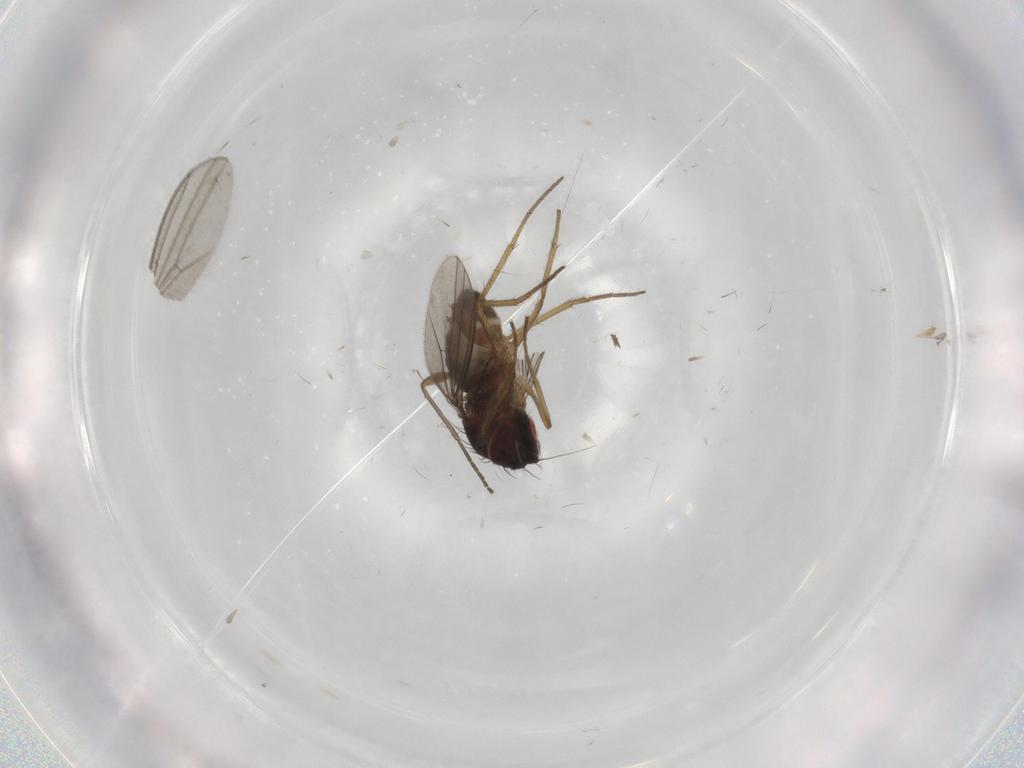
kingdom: Animalia
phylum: Arthropoda
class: Insecta
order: Diptera
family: Dolichopodidae
